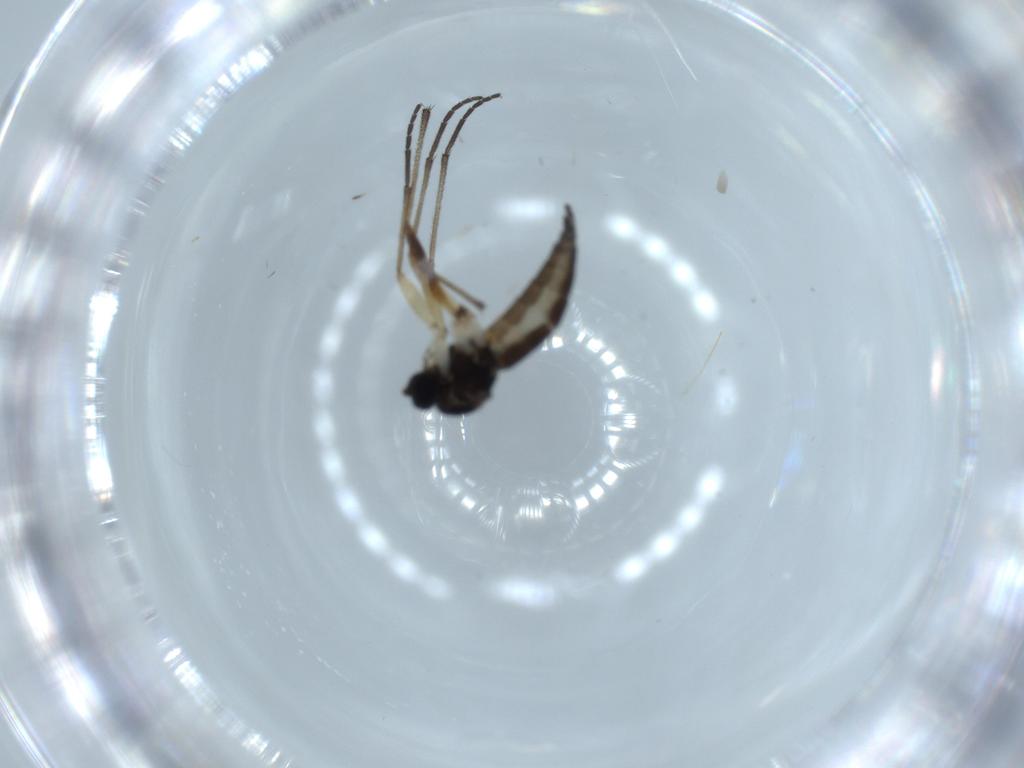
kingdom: Animalia
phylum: Arthropoda
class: Insecta
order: Diptera
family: Sciaridae
